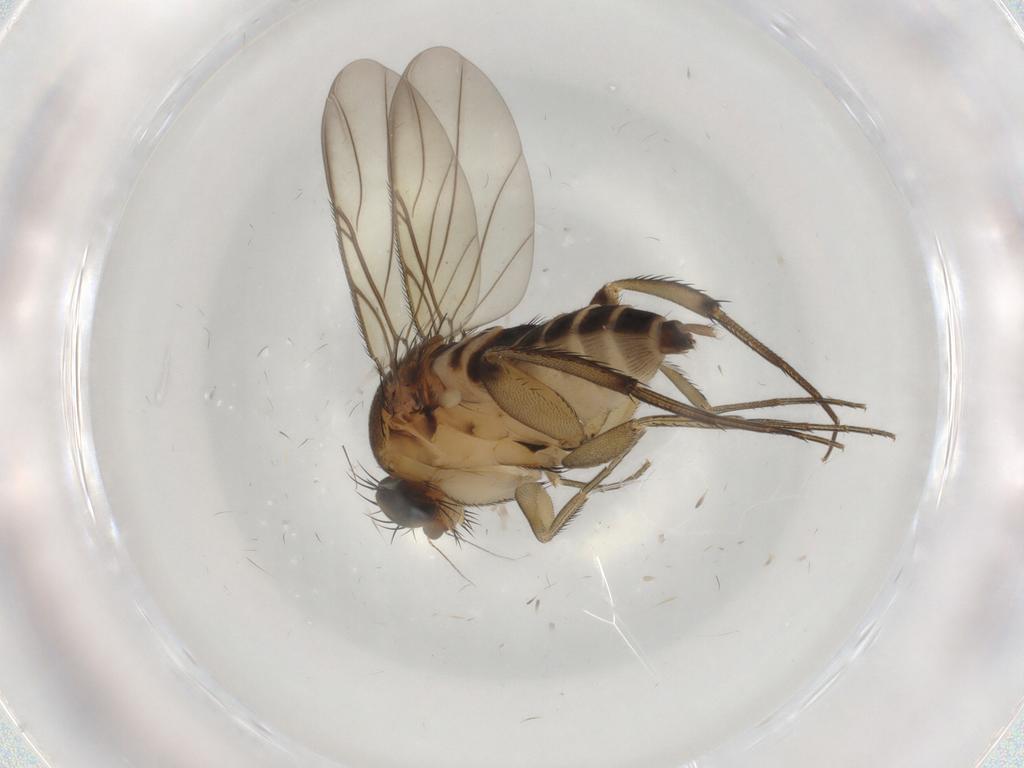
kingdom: Animalia
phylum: Arthropoda
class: Insecta
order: Diptera
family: Phoridae
